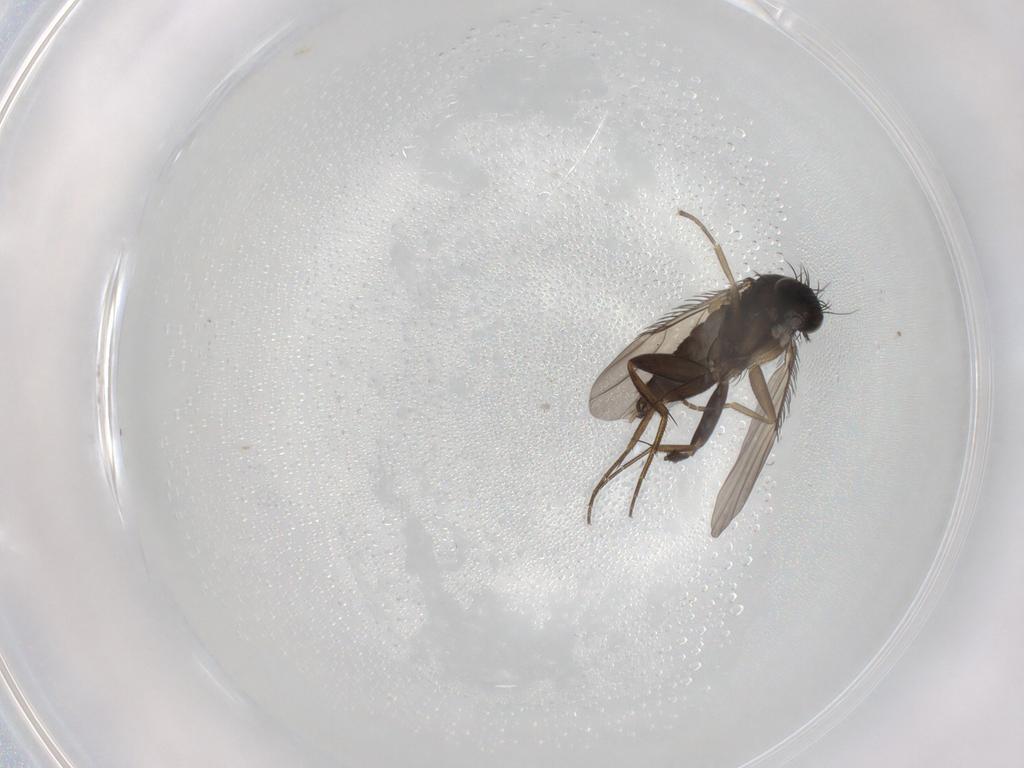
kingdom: Animalia
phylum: Arthropoda
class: Insecta
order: Diptera
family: Phoridae
